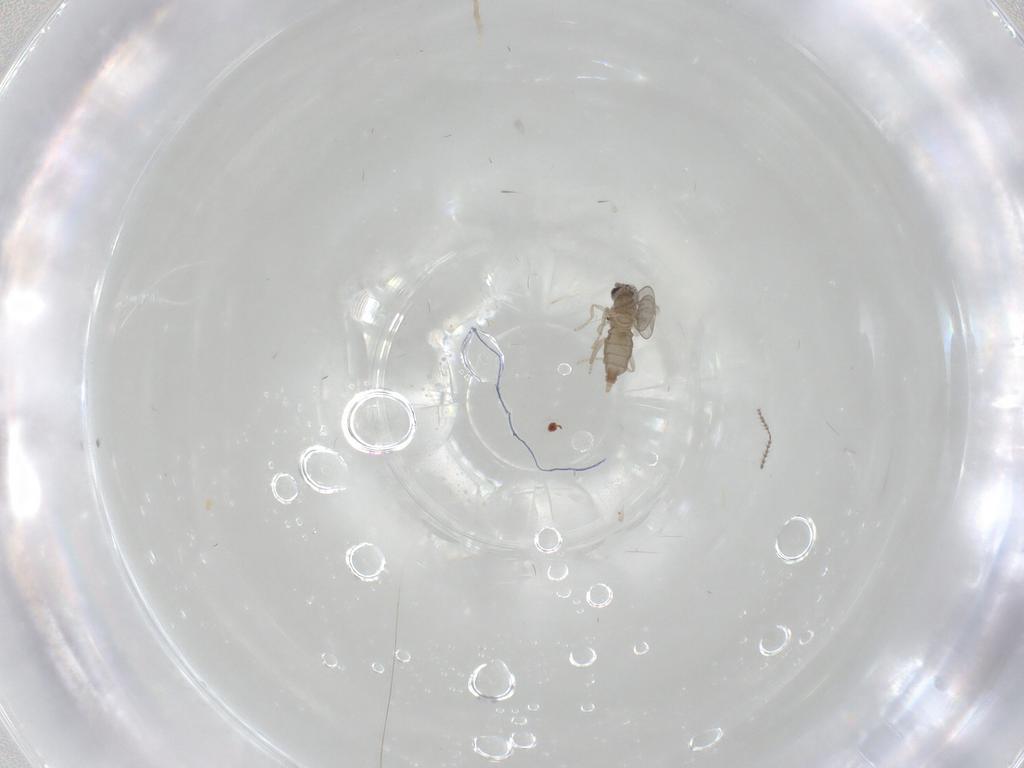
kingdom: Animalia
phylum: Arthropoda
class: Insecta
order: Diptera
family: Cecidomyiidae
